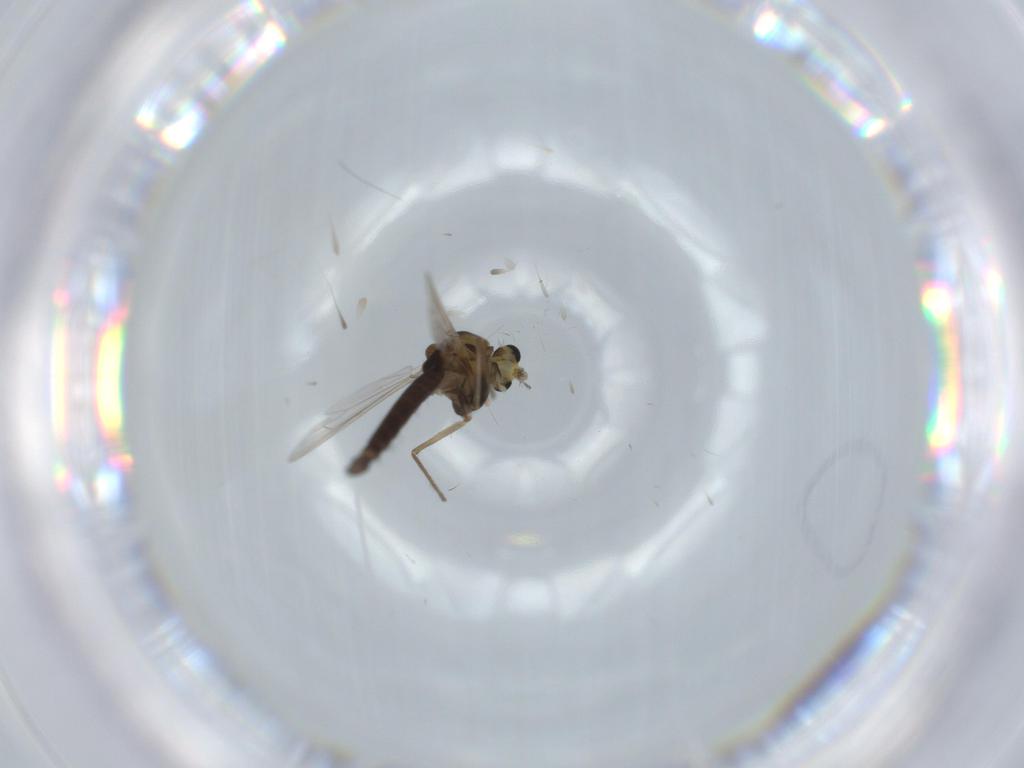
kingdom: Animalia
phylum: Arthropoda
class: Insecta
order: Diptera
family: Chironomidae
